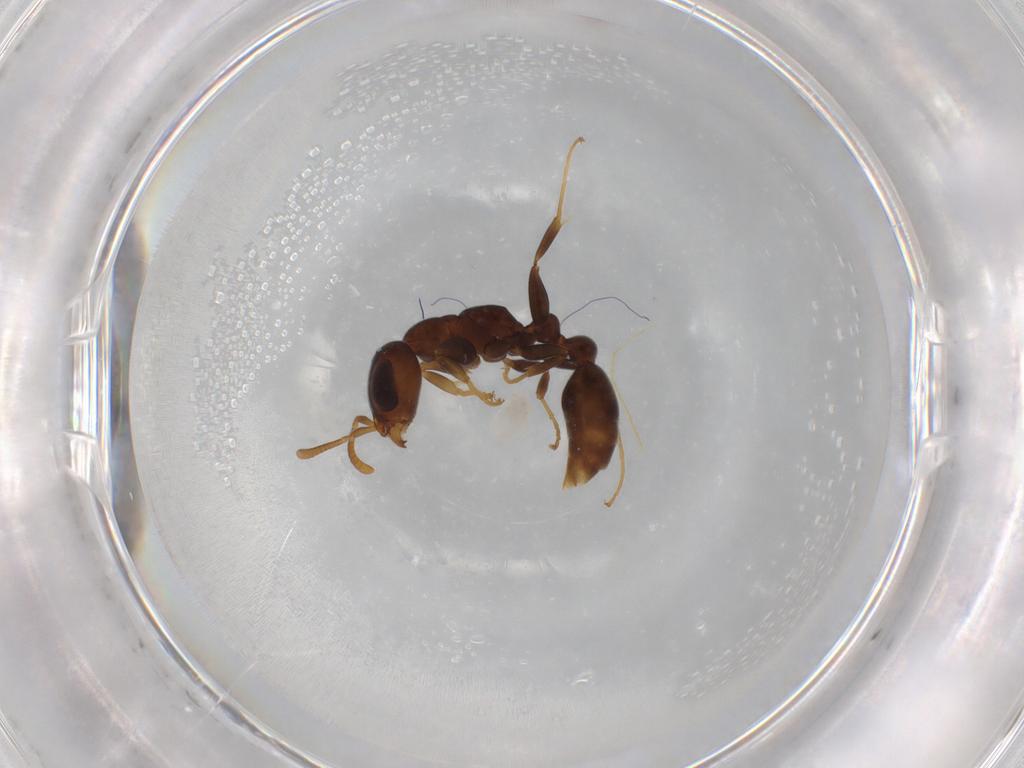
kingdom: Animalia
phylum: Arthropoda
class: Insecta
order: Hymenoptera
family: Formicidae
